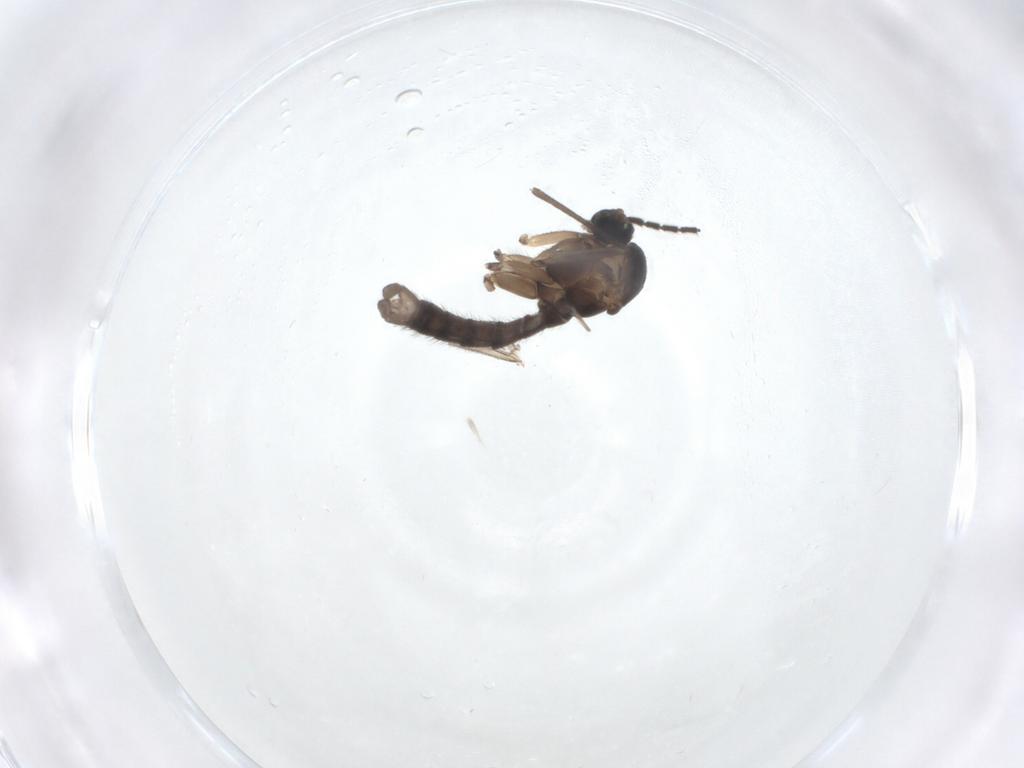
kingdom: Animalia
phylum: Arthropoda
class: Insecta
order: Diptera
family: Sciaridae
